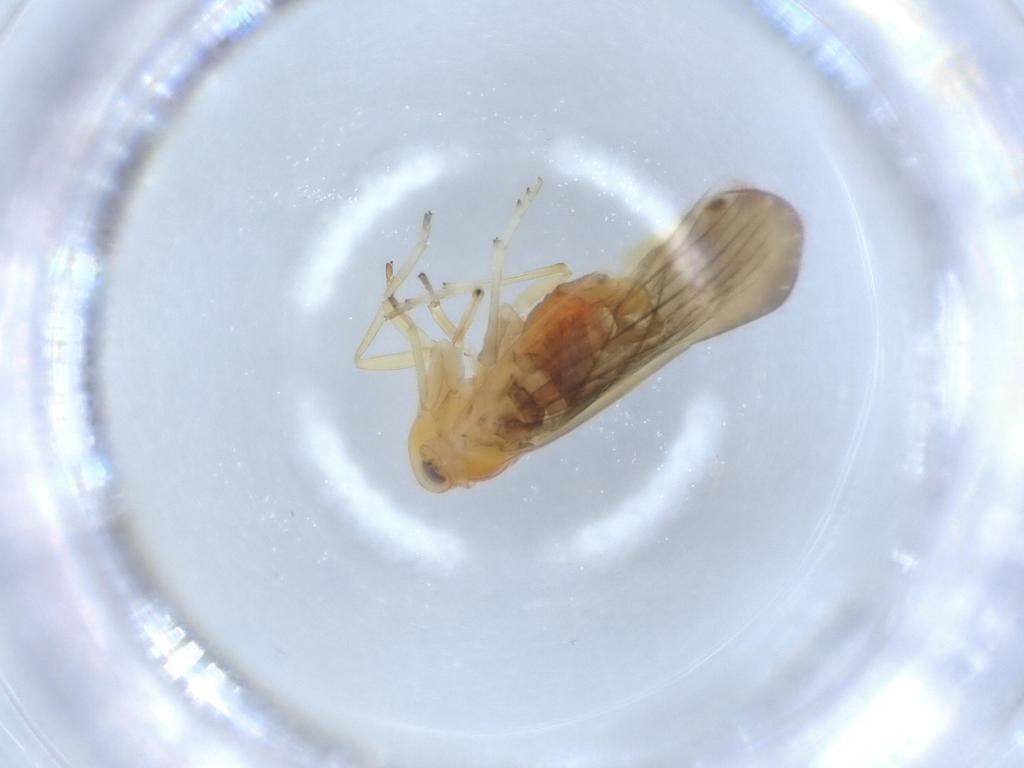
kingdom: Animalia
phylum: Arthropoda
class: Insecta
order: Hemiptera
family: Derbidae
